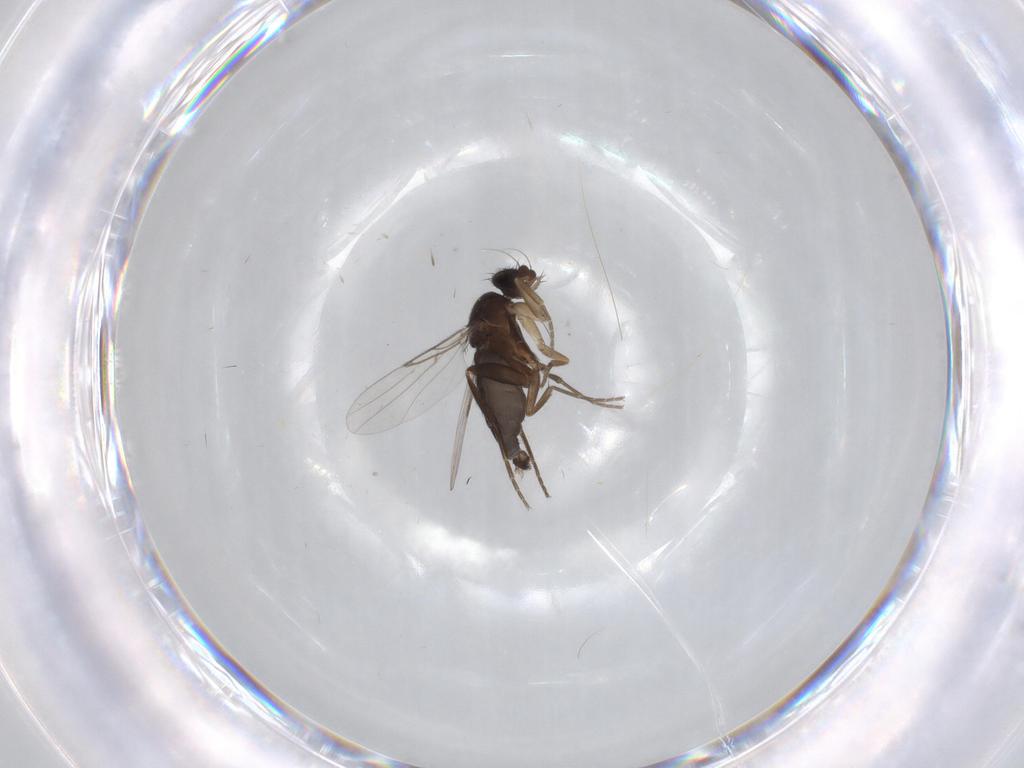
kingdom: Animalia
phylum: Arthropoda
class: Insecta
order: Diptera
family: Phoridae
